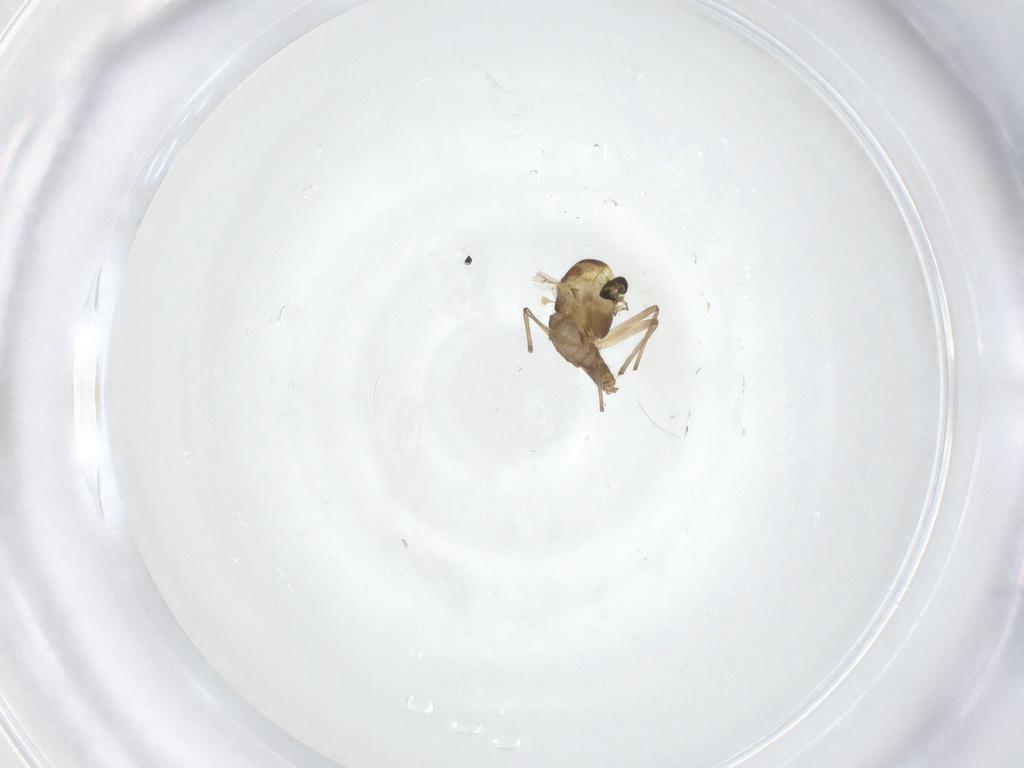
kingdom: Animalia
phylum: Arthropoda
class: Insecta
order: Diptera
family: Chironomidae
